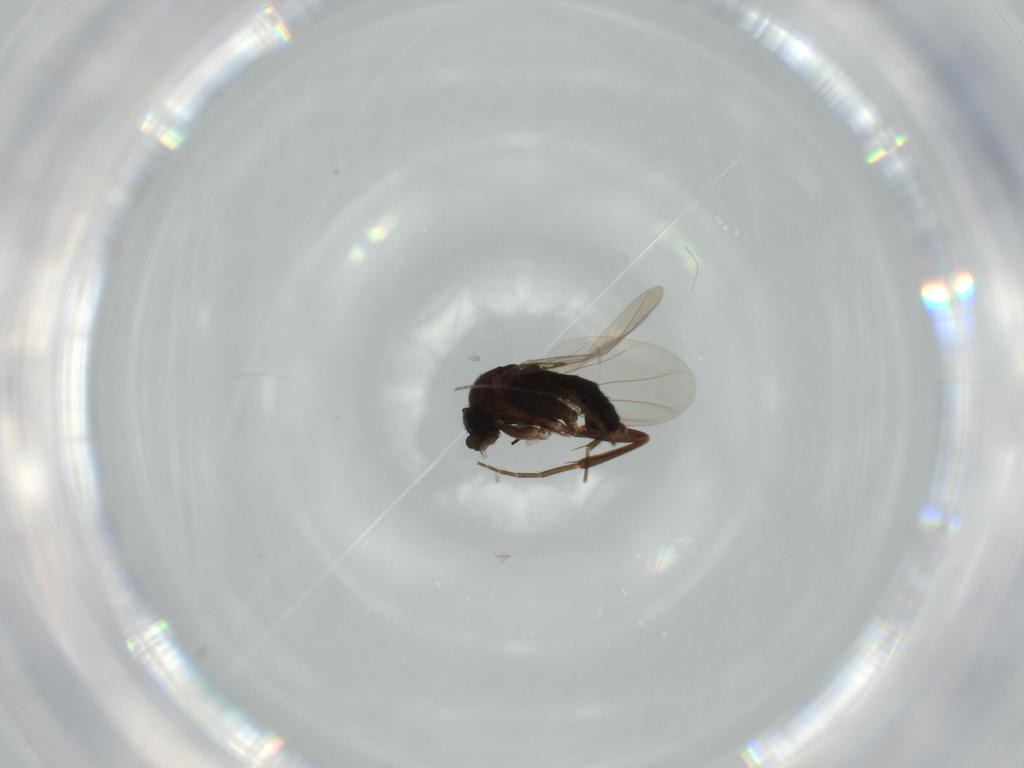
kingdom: Animalia
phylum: Arthropoda
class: Insecta
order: Diptera
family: Phoridae
